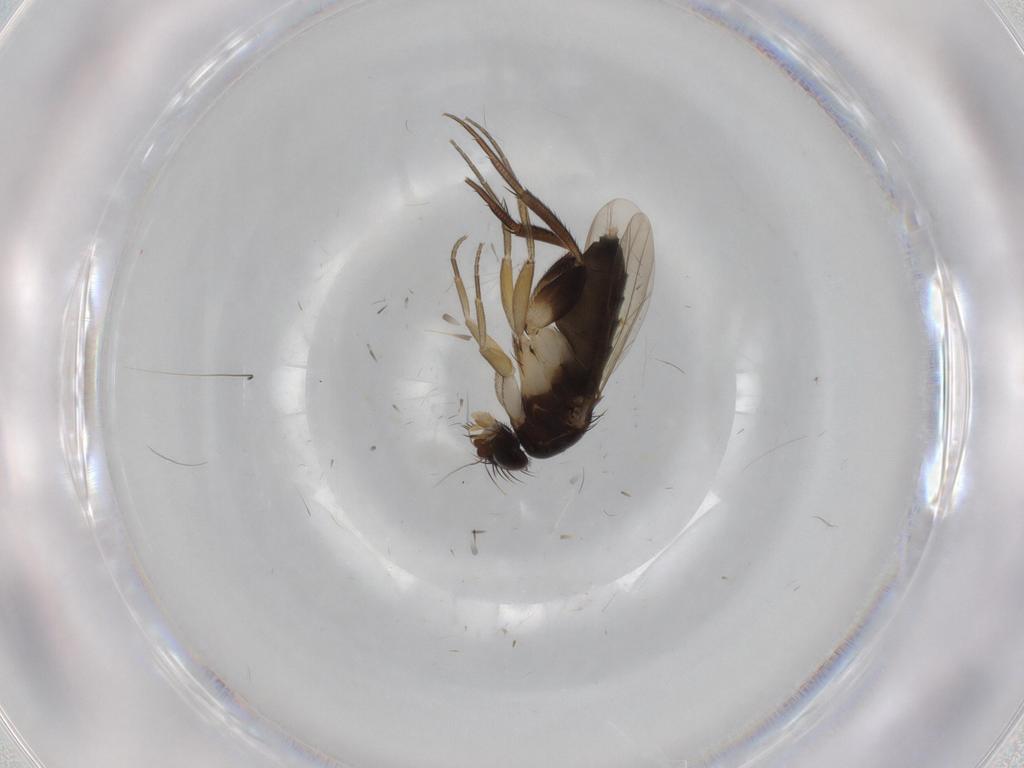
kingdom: Animalia
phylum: Arthropoda
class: Insecta
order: Diptera
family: Phoridae
